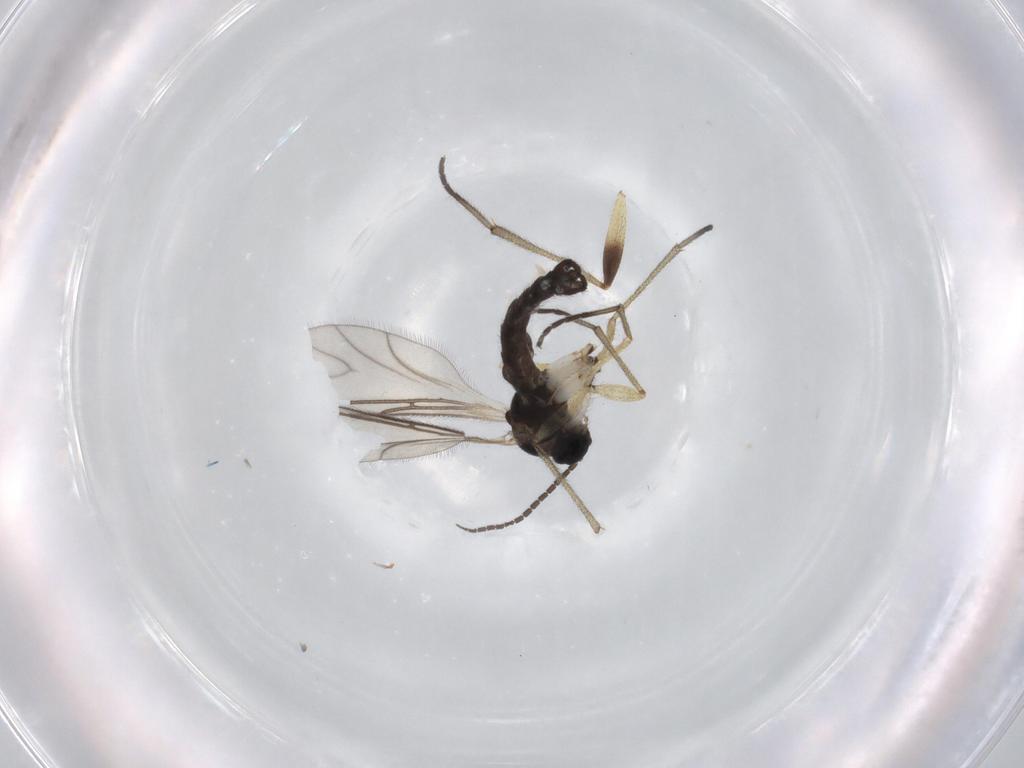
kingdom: Animalia
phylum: Arthropoda
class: Insecta
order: Diptera
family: Sciaridae
